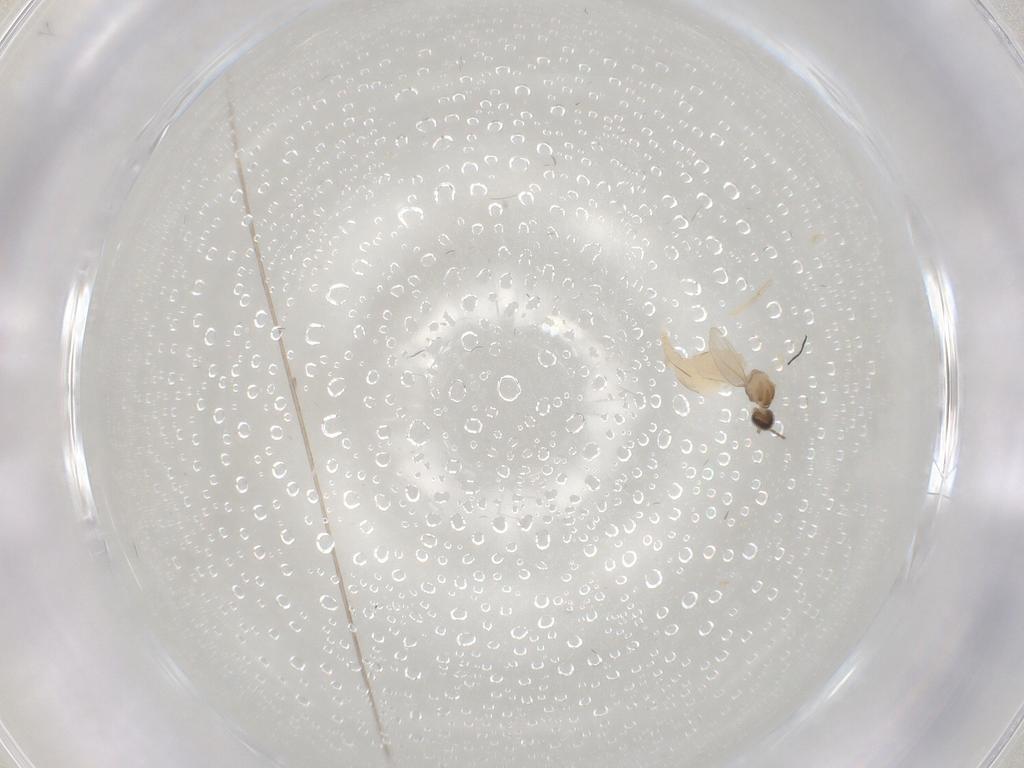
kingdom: Animalia
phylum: Arthropoda
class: Insecta
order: Diptera
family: Cecidomyiidae
